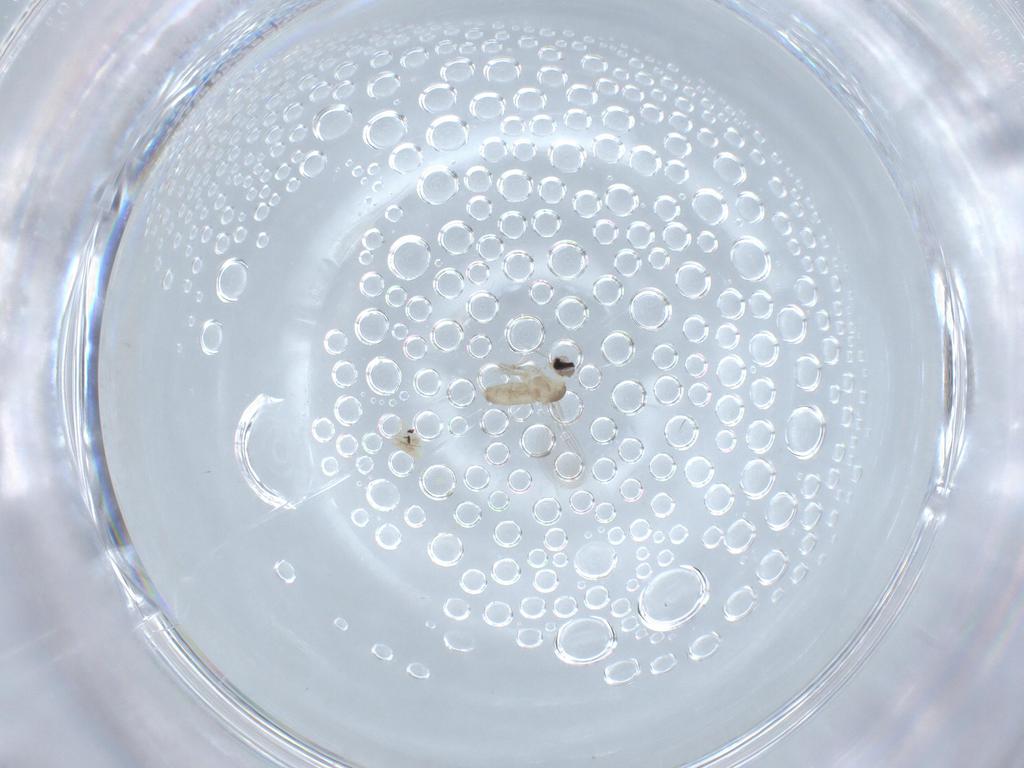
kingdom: Animalia
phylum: Arthropoda
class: Insecta
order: Diptera
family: Cecidomyiidae
